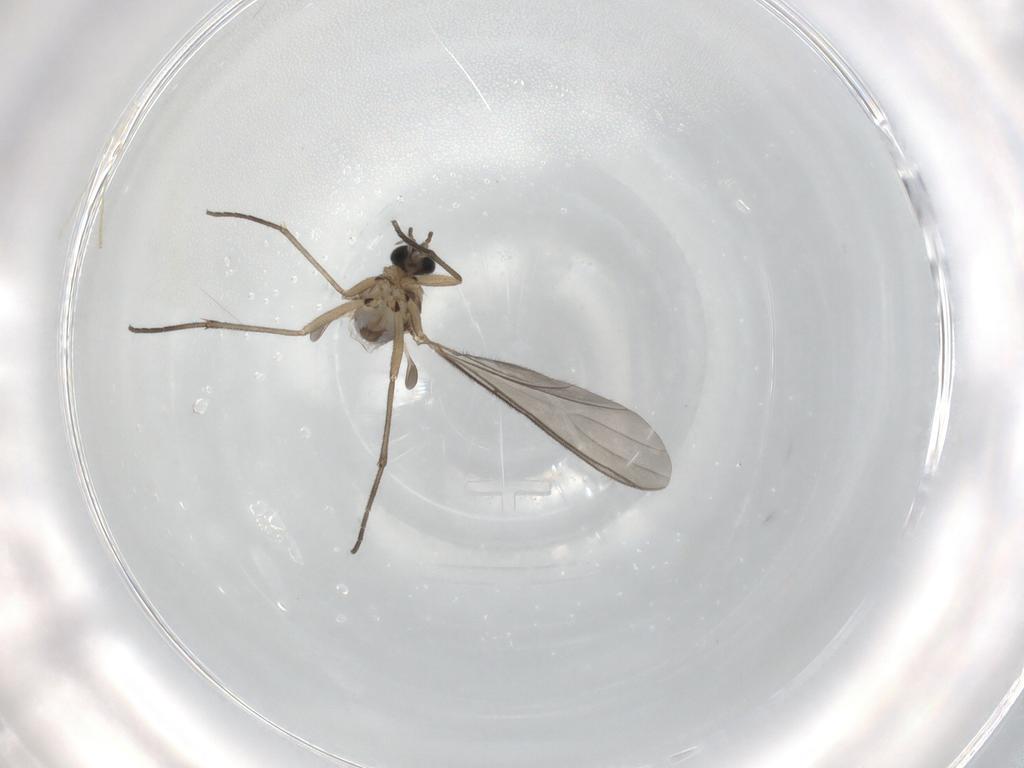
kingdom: Animalia
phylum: Arthropoda
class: Insecta
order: Diptera
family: Sciaridae
